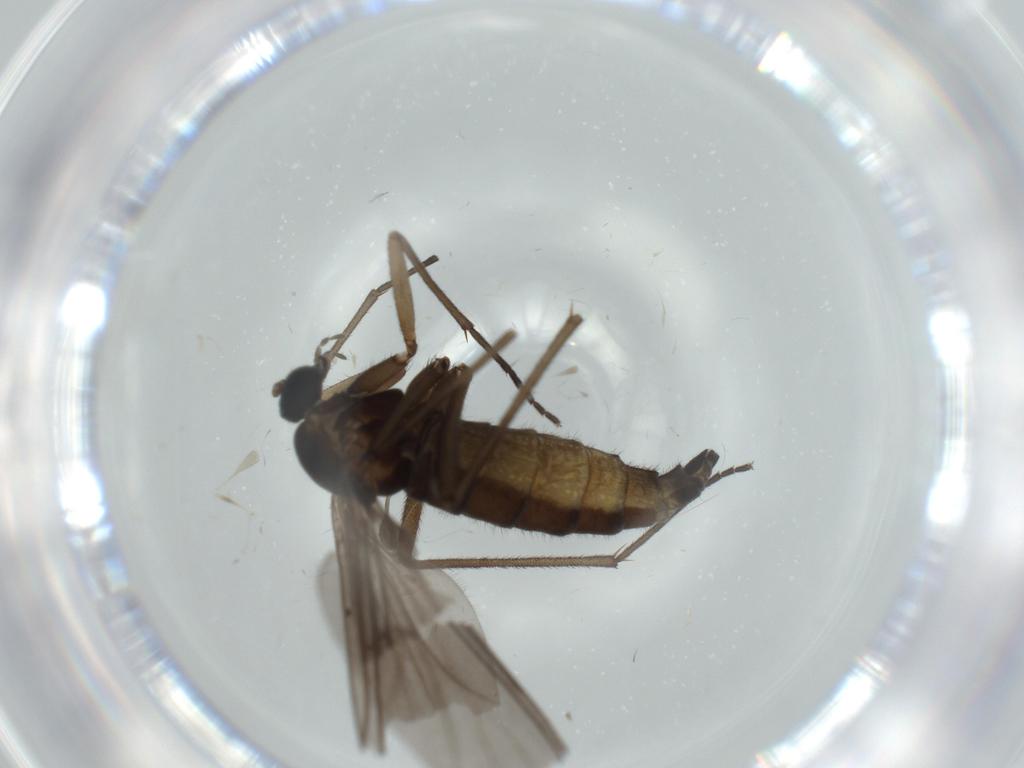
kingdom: Animalia
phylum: Arthropoda
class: Insecta
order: Diptera
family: Sciaridae
